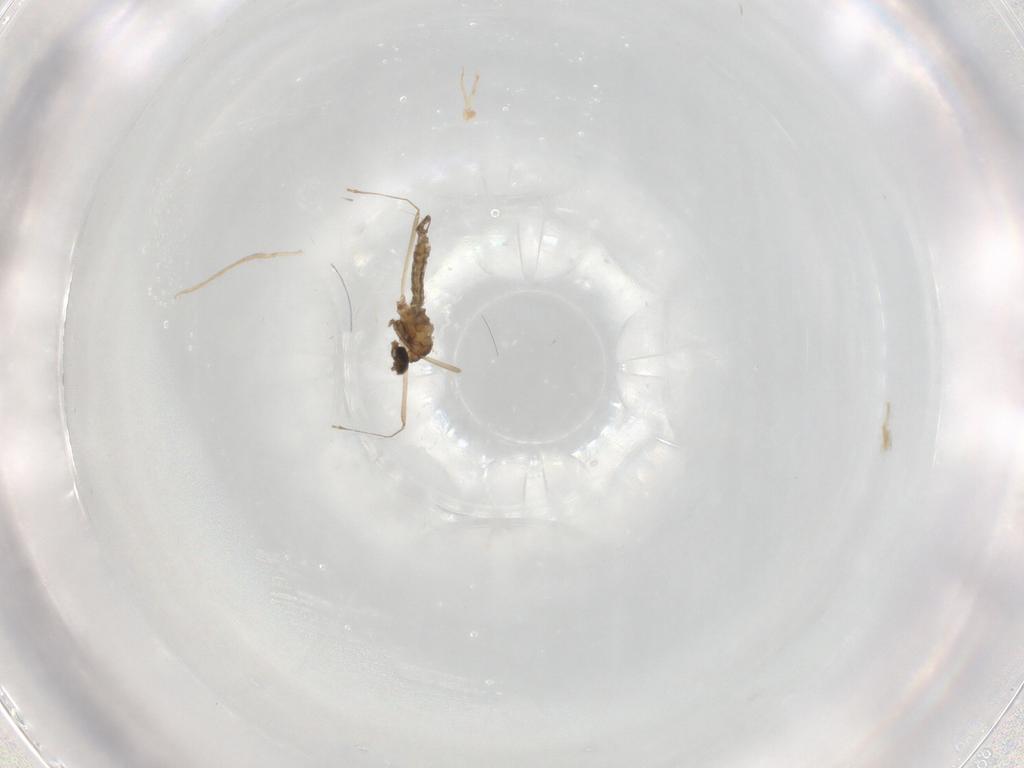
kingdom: Animalia
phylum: Arthropoda
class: Insecta
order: Diptera
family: Cecidomyiidae
